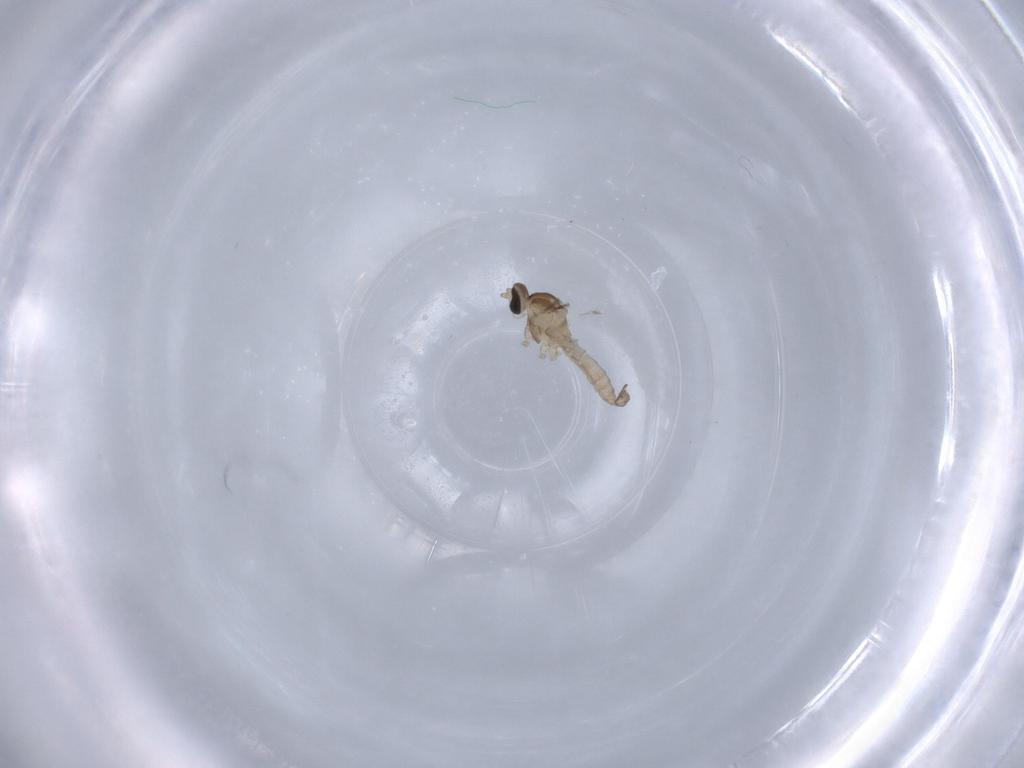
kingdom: Animalia
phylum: Arthropoda
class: Insecta
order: Diptera
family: Cecidomyiidae
